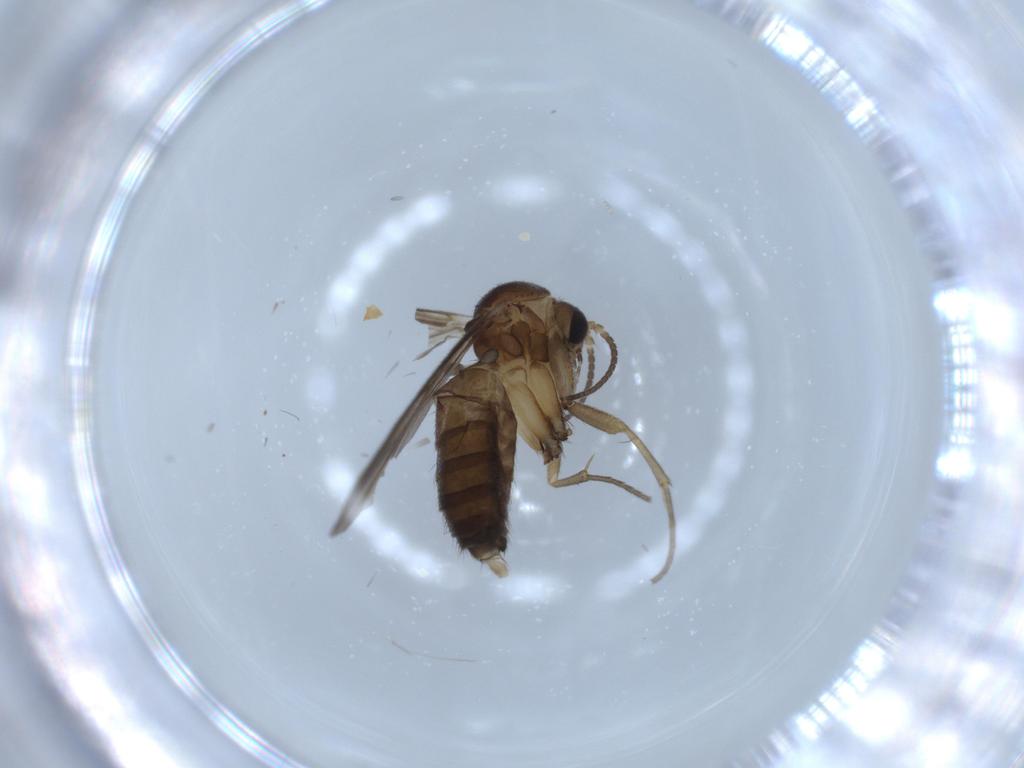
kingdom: Animalia
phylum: Arthropoda
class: Insecta
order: Diptera
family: Mycetophilidae
